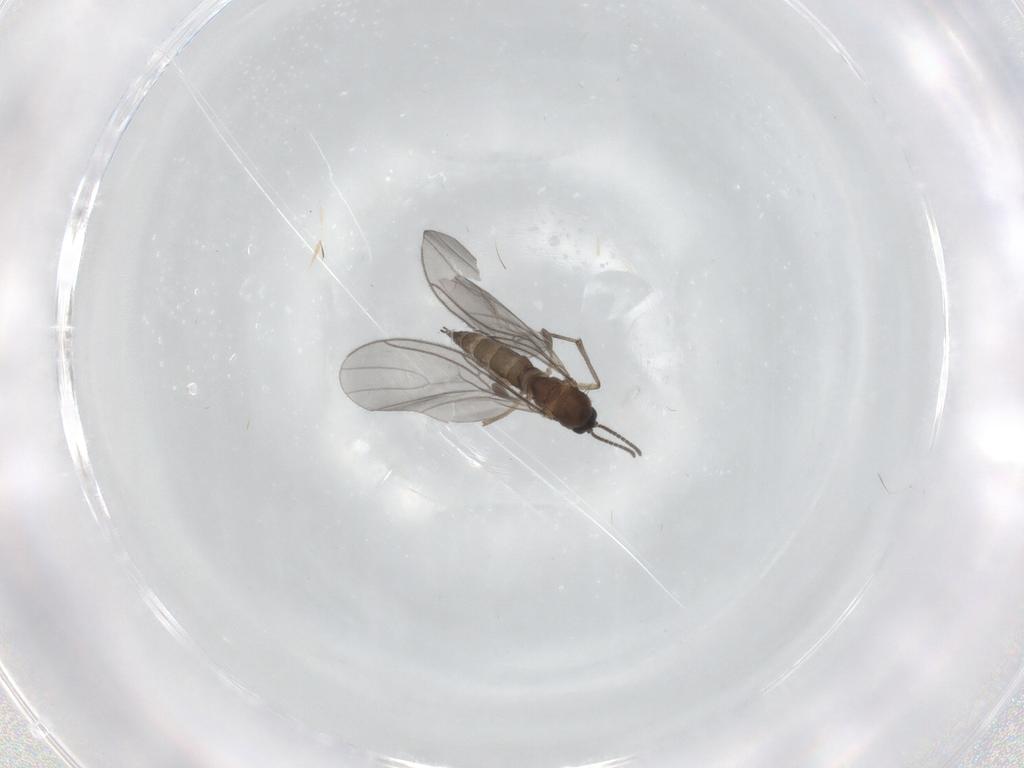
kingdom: Animalia
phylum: Arthropoda
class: Insecta
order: Diptera
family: Sciaridae
